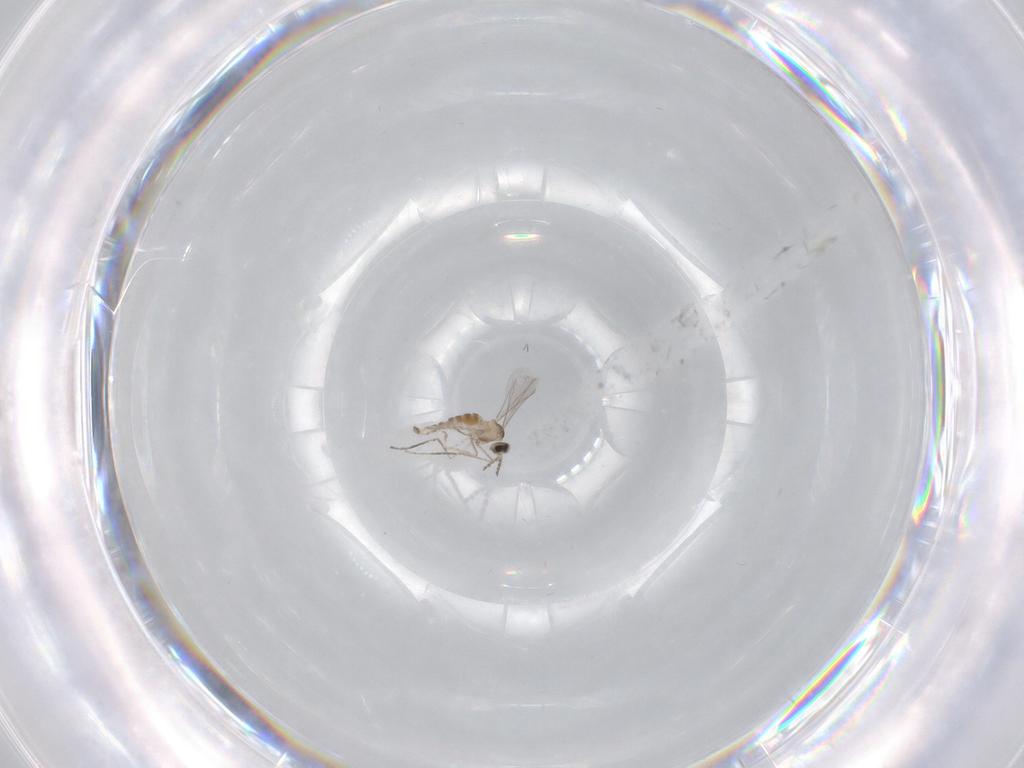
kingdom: Animalia
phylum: Arthropoda
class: Insecta
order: Diptera
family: Cecidomyiidae
